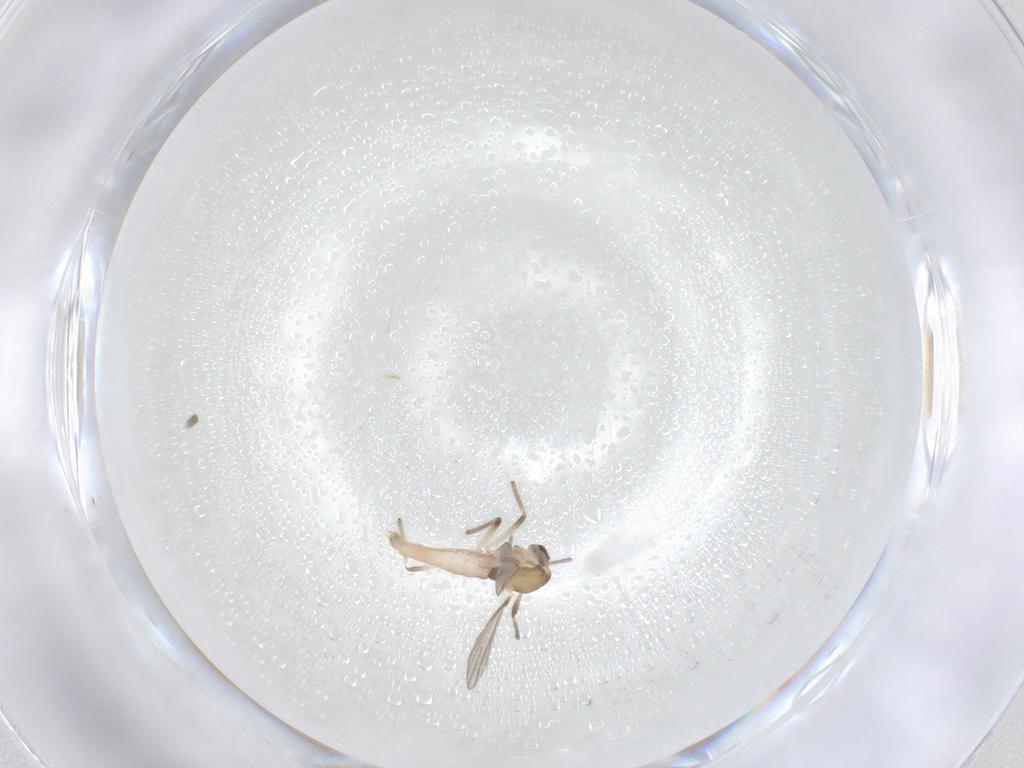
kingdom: Animalia
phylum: Arthropoda
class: Insecta
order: Diptera
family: Chironomidae
